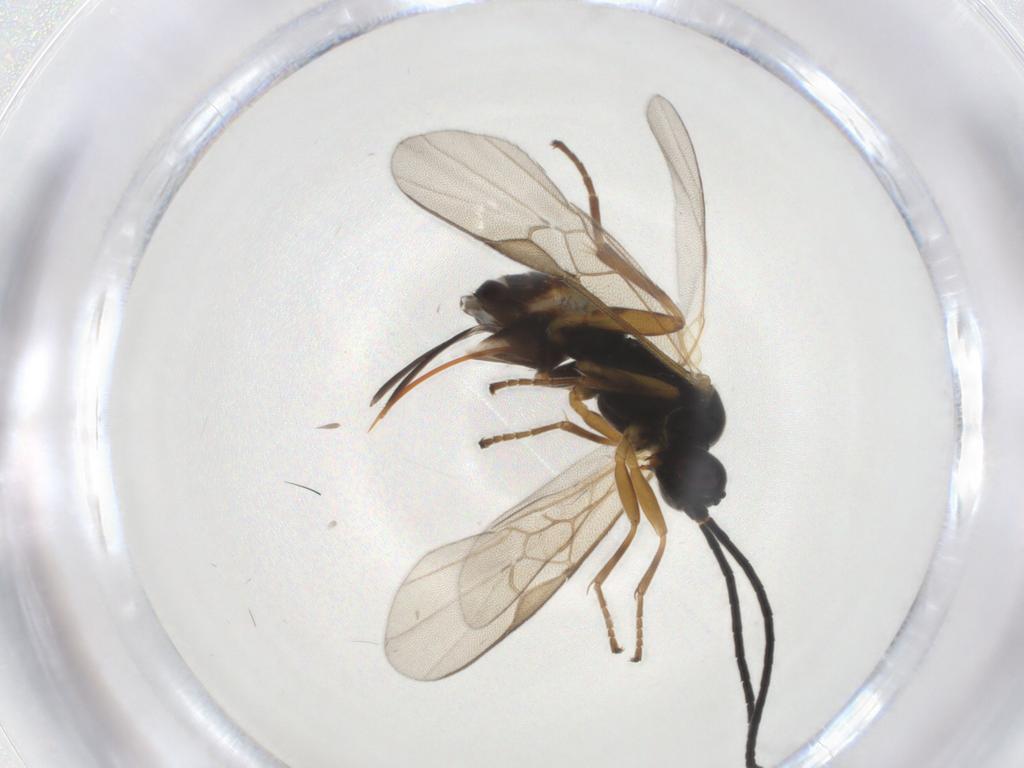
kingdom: Animalia
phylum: Arthropoda
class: Insecta
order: Hymenoptera
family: Braconidae
